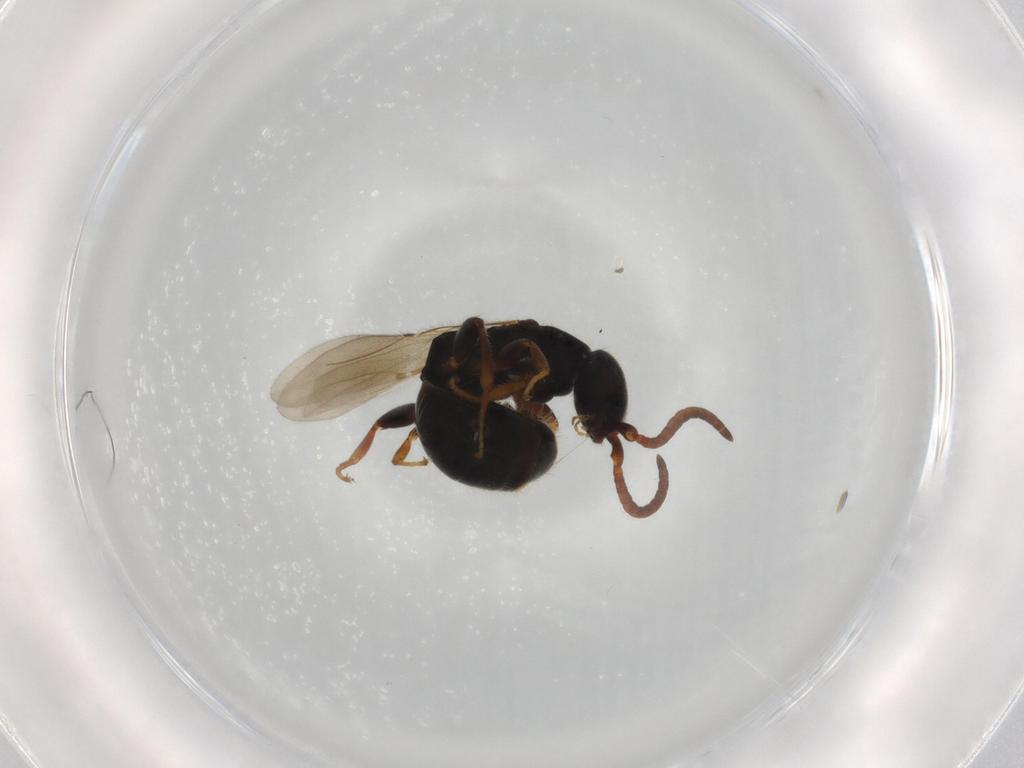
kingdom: Animalia
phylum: Arthropoda
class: Insecta
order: Hymenoptera
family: Bethylidae
